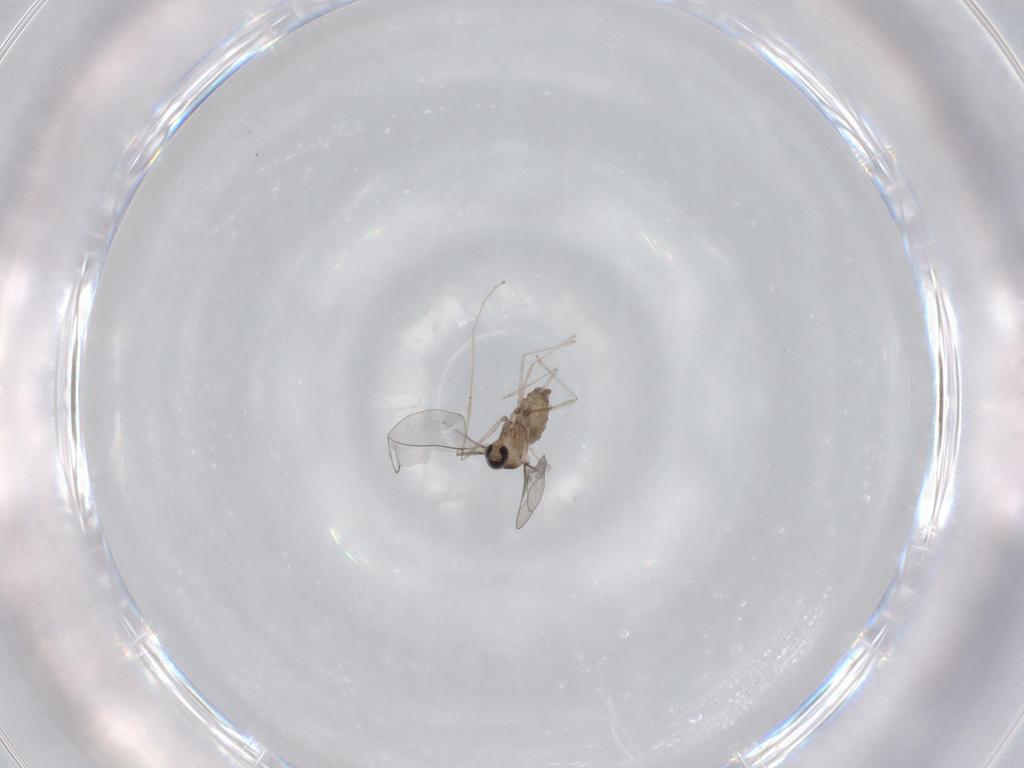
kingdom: Animalia
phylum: Arthropoda
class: Insecta
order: Diptera
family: Cecidomyiidae
